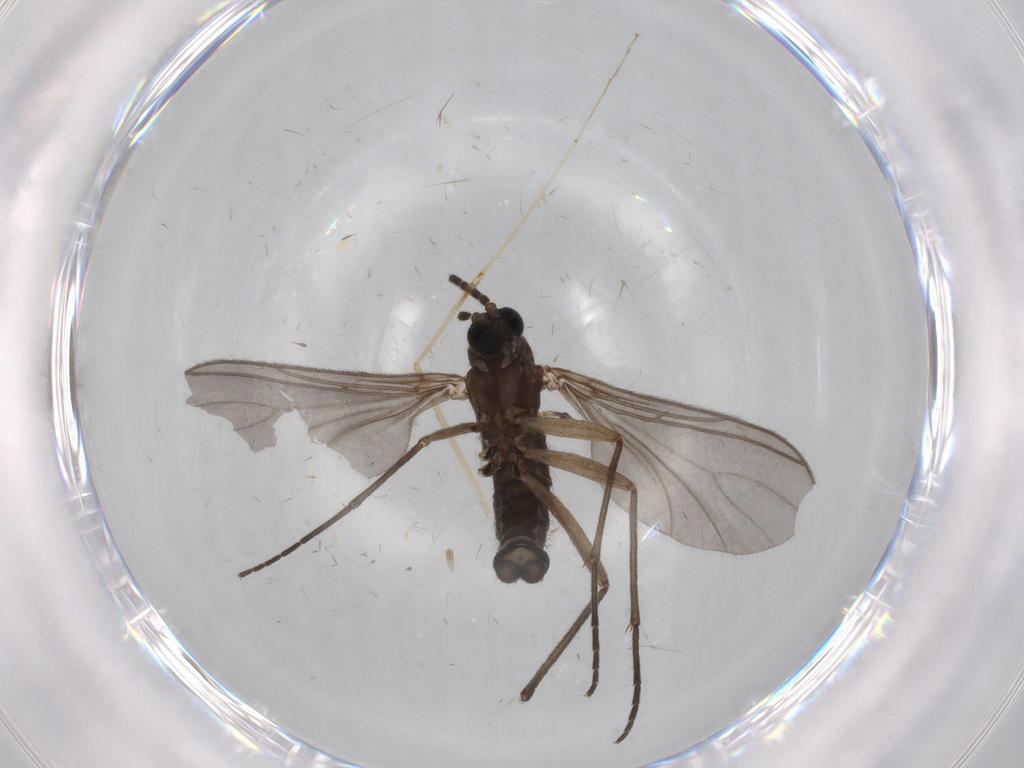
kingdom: Animalia
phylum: Arthropoda
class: Insecta
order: Diptera
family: Sciaridae
